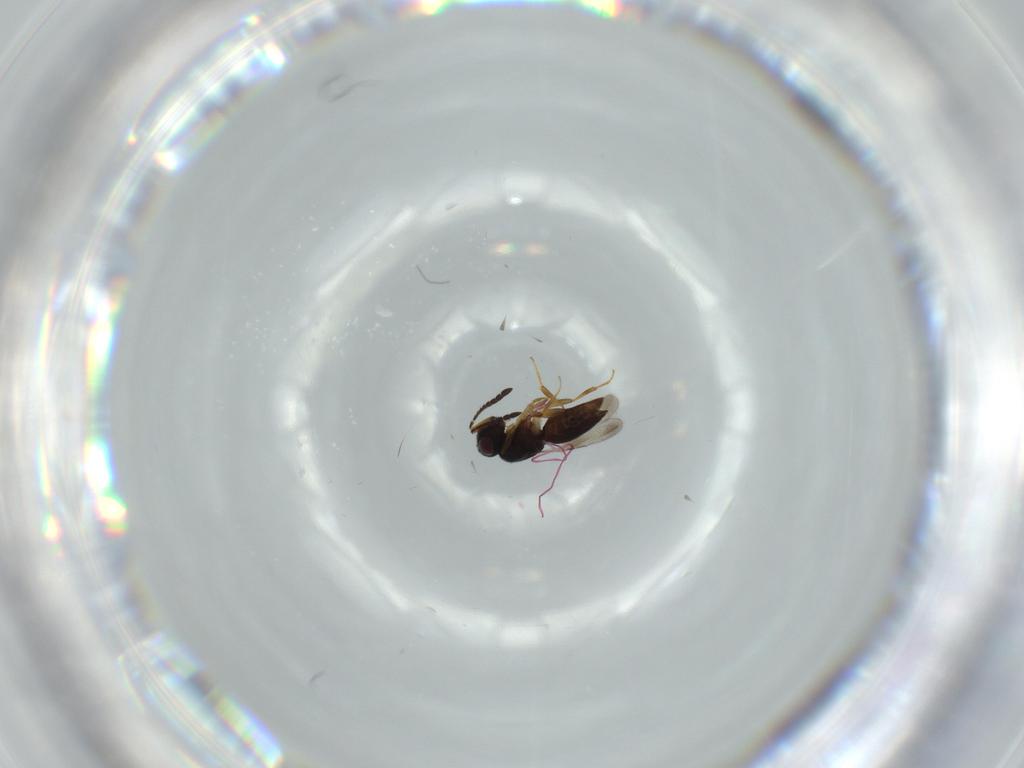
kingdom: Animalia
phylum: Arthropoda
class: Insecta
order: Hymenoptera
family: Ceraphronidae
